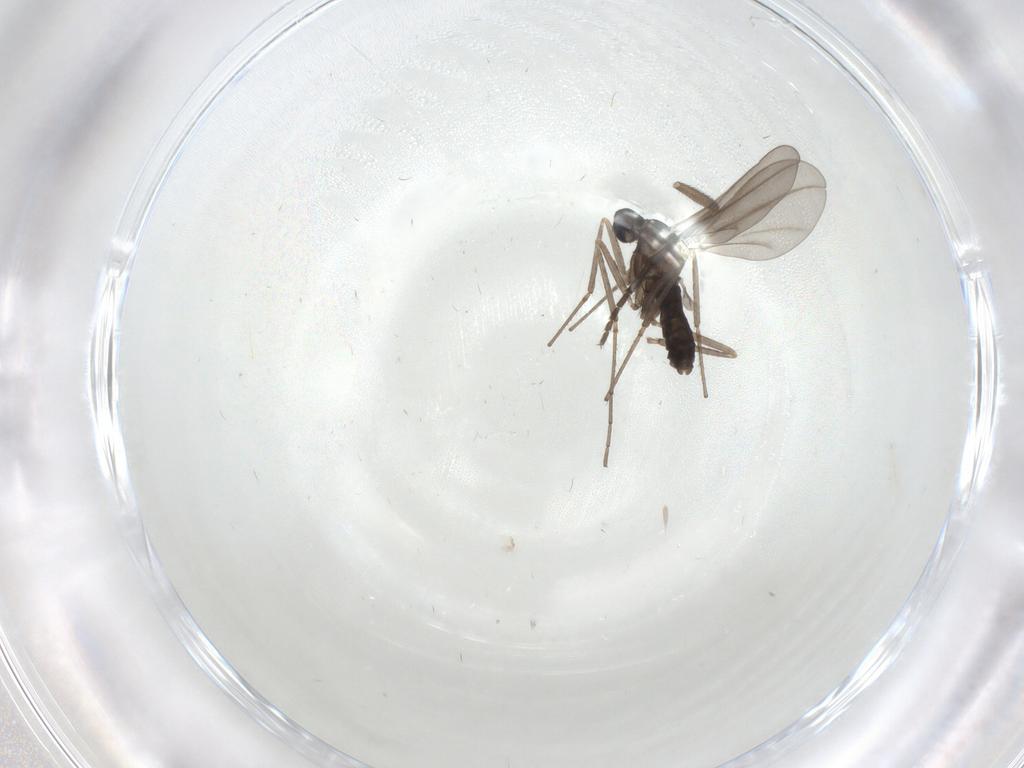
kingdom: Animalia
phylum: Arthropoda
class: Insecta
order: Diptera
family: Cecidomyiidae
